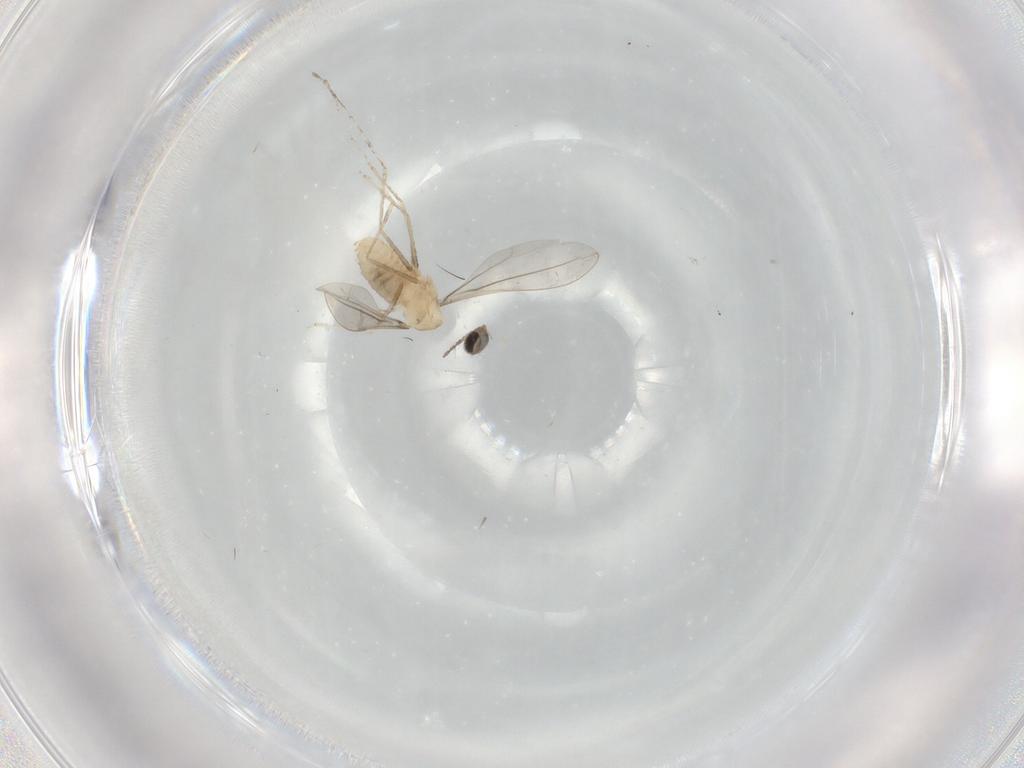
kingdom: Animalia
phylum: Arthropoda
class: Insecta
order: Diptera
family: Cecidomyiidae
